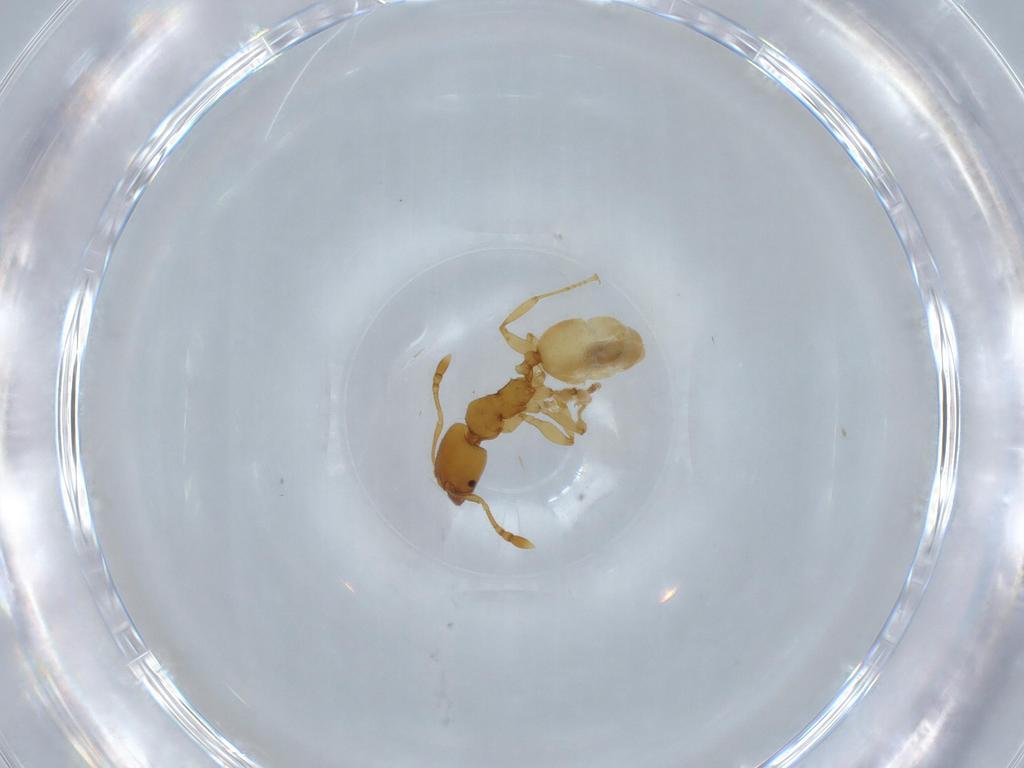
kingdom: Animalia
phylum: Arthropoda
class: Insecta
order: Hymenoptera
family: Formicidae
